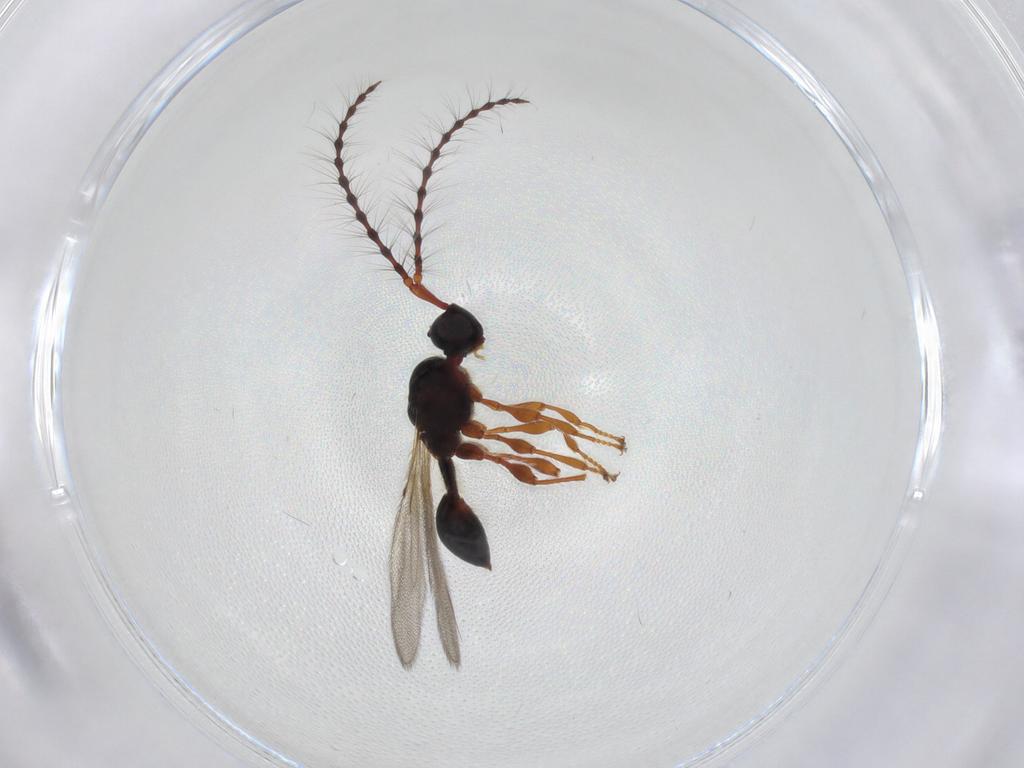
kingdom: Animalia
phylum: Arthropoda
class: Insecta
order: Hymenoptera
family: Diapriidae
